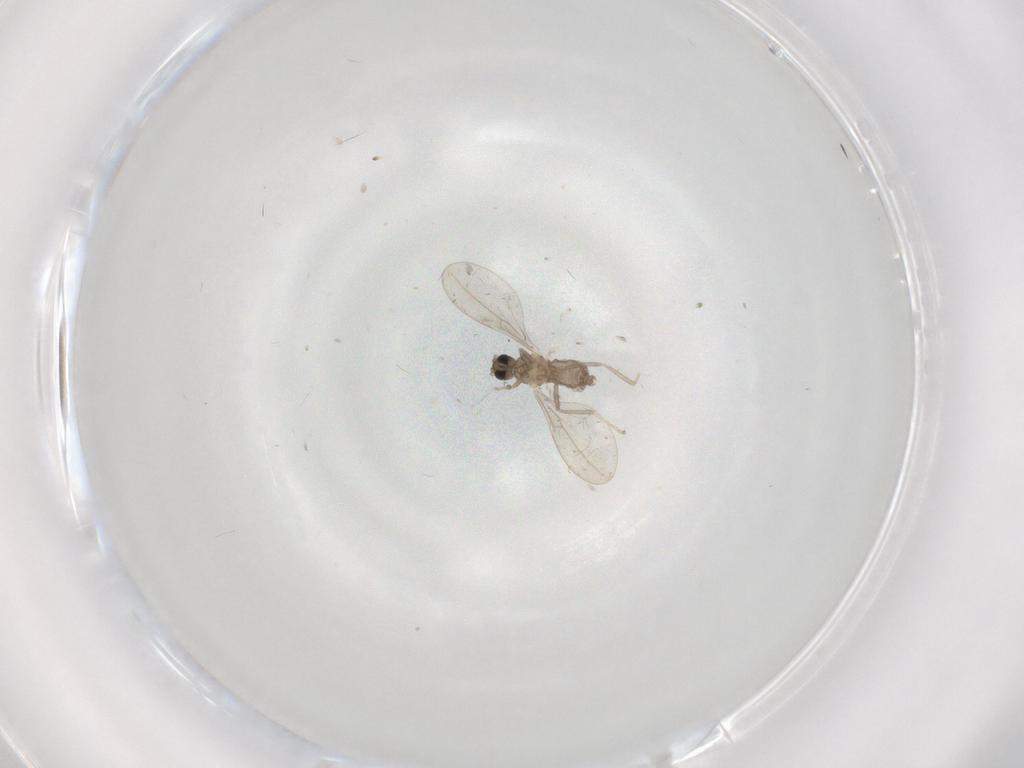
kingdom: Animalia
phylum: Arthropoda
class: Insecta
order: Diptera
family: Cecidomyiidae
